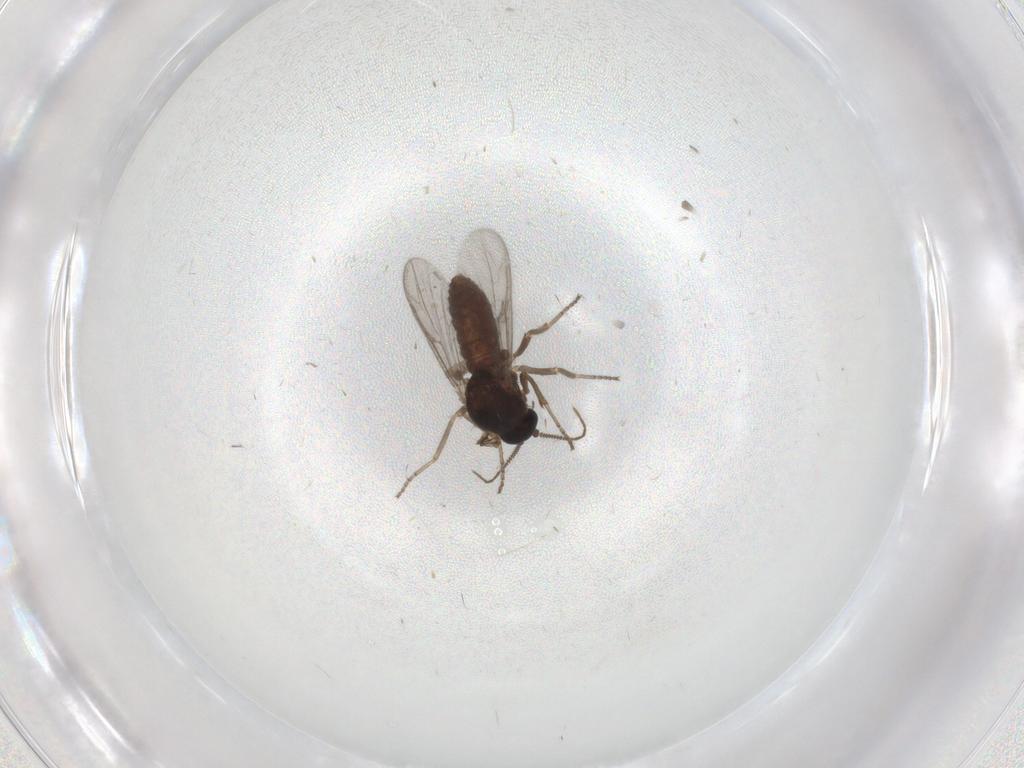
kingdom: Animalia
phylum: Arthropoda
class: Insecta
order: Diptera
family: Ceratopogonidae
